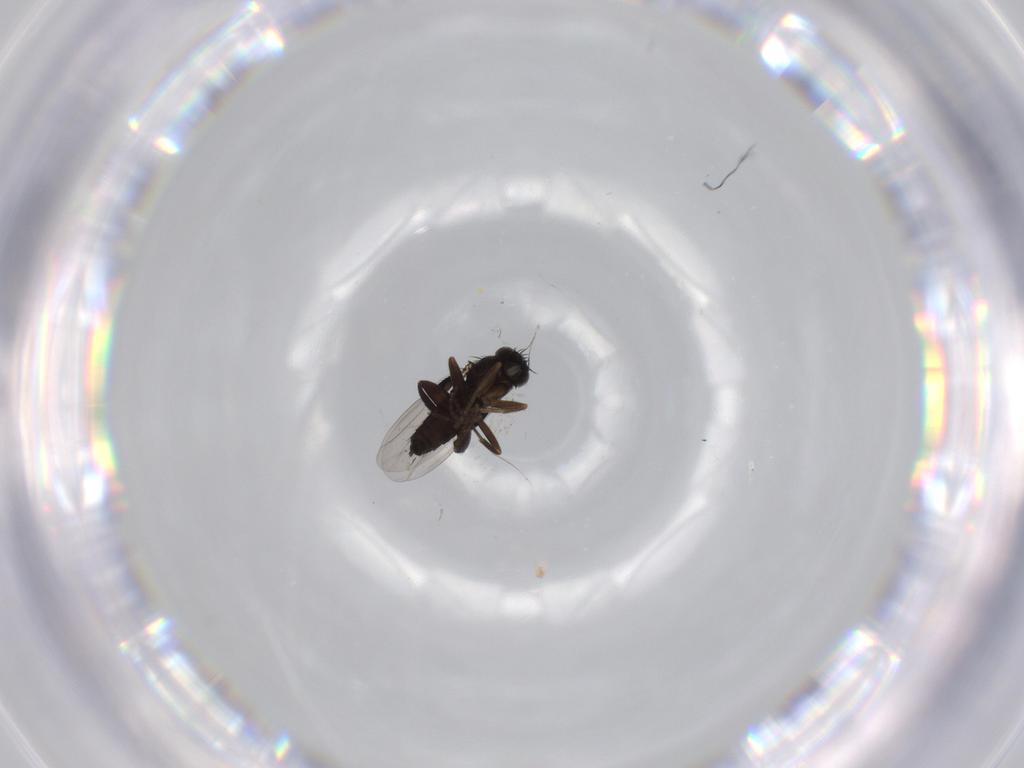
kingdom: Animalia
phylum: Arthropoda
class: Insecta
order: Diptera
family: Phoridae
